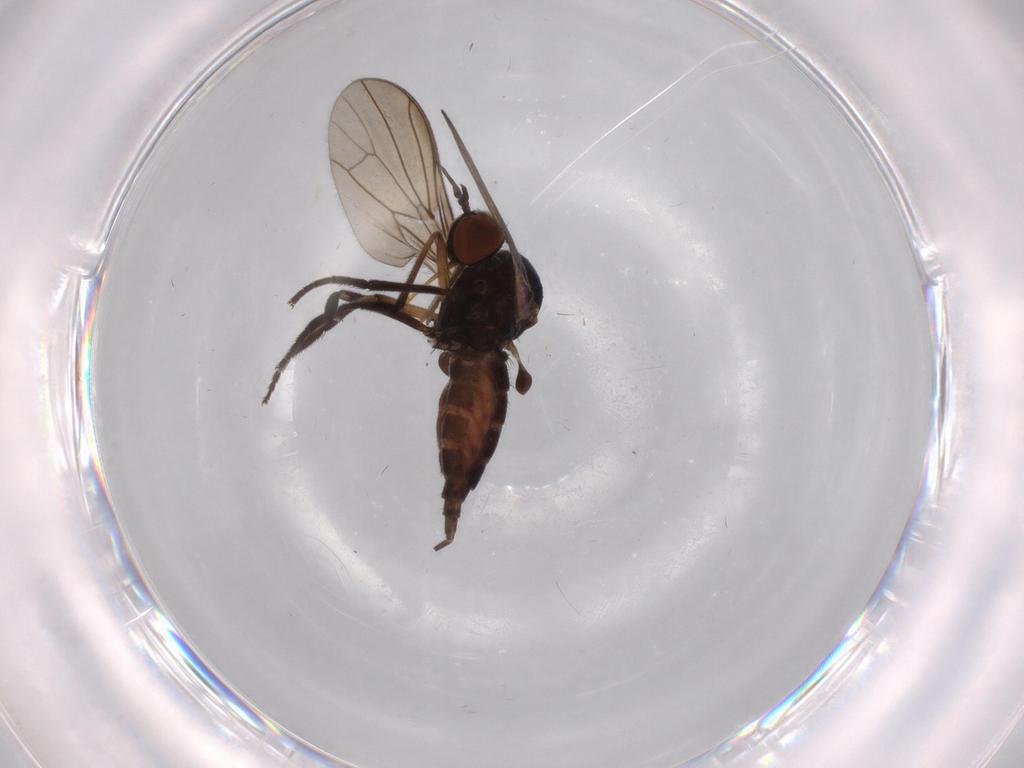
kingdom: Animalia
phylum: Arthropoda
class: Insecta
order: Diptera
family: Empididae
